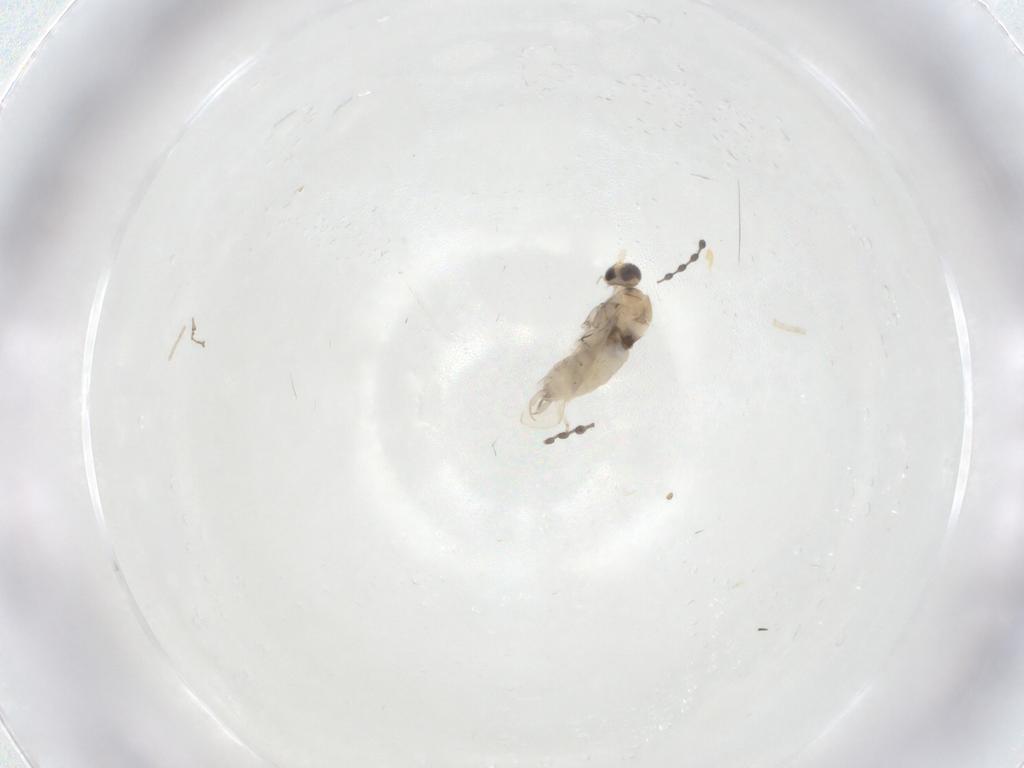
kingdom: Animalia
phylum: Arthropoda
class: Insecta
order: Diptera
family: Cecidomyiidae
